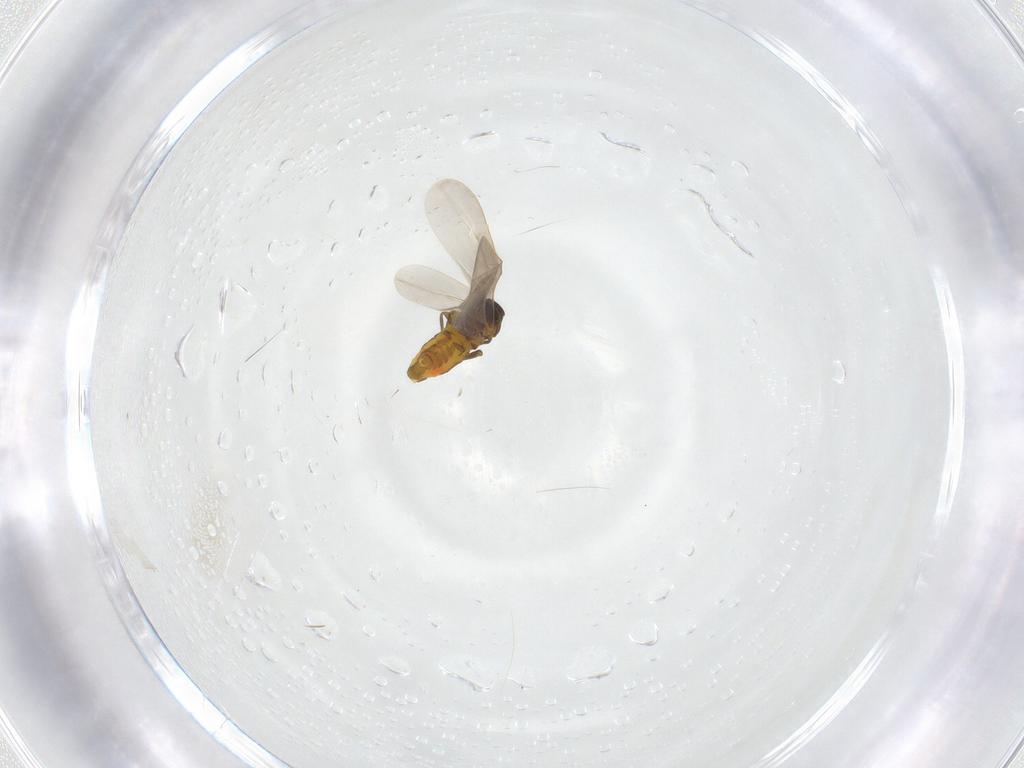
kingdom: Animalia
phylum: Arthropoda
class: Insecta
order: Hemiptera
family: Aleyrodidae
